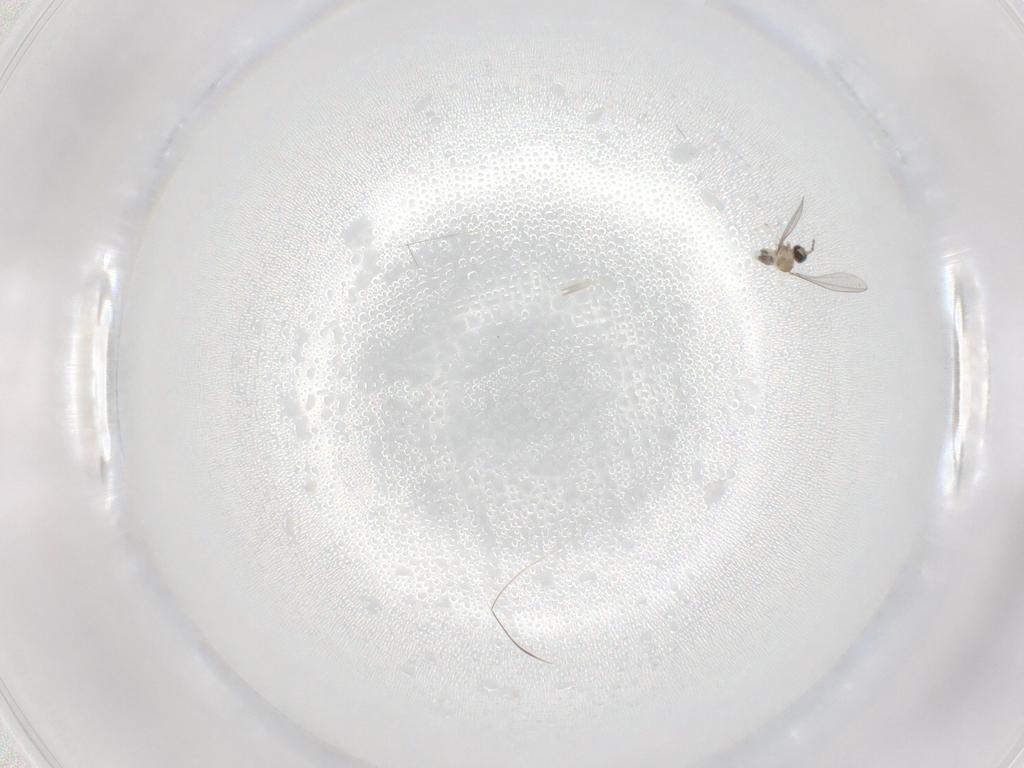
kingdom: Animalia
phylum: Arthropoda
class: Insecta
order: Diptera
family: Cecidomyiidae
